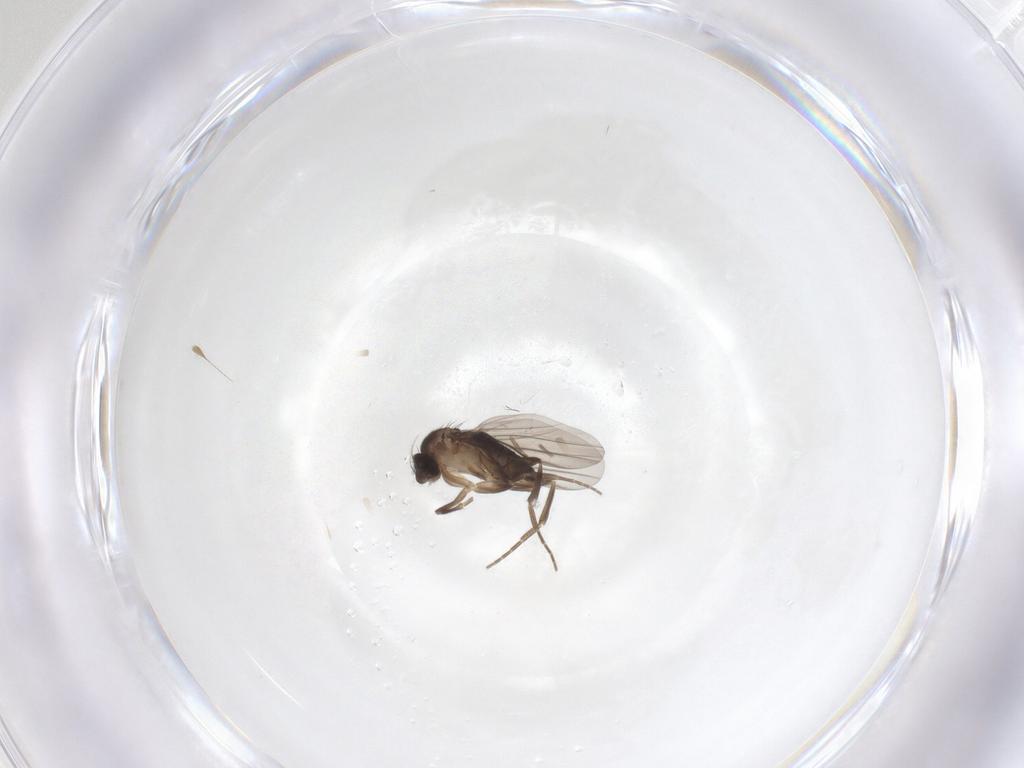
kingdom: Animalia
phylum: Arthropoda
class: Insecta
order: Diptera
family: Phoridae
